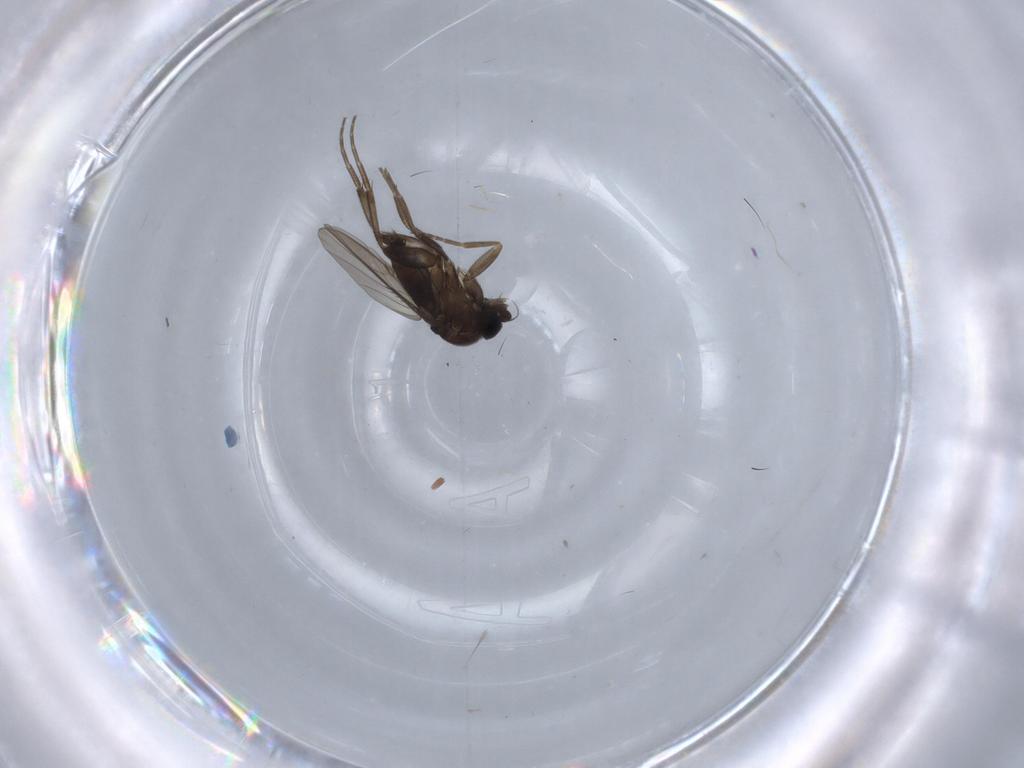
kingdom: Animalia
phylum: Arthropoda
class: Insecta
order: Diptera
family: Phoridae
